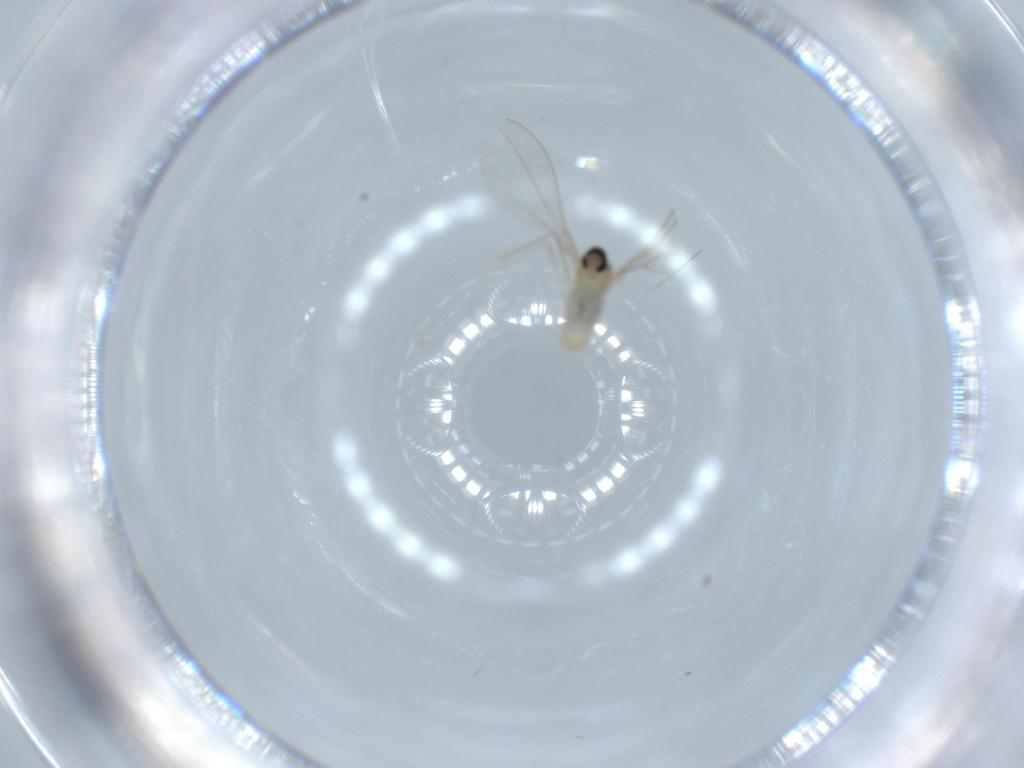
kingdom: Animalia
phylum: Arthropoda
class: Insecta
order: Diptera
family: Cecidomyiidae
